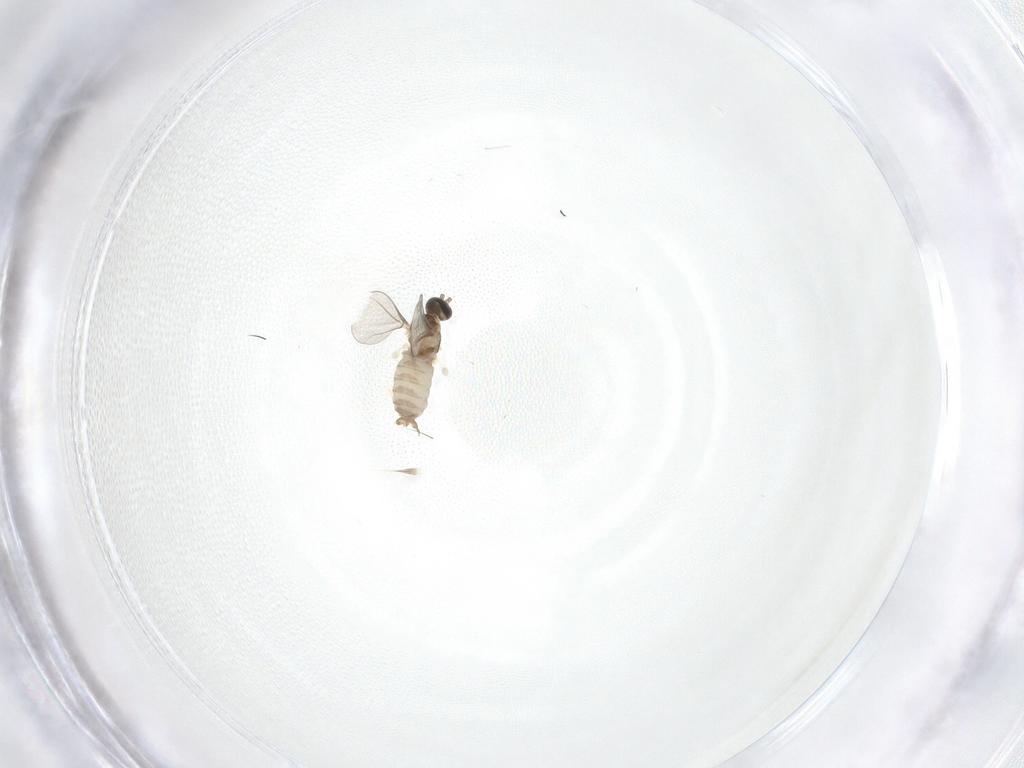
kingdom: Animalia
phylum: Arthropoda
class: Insecta
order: Diptera
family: Cecidomyiidae
